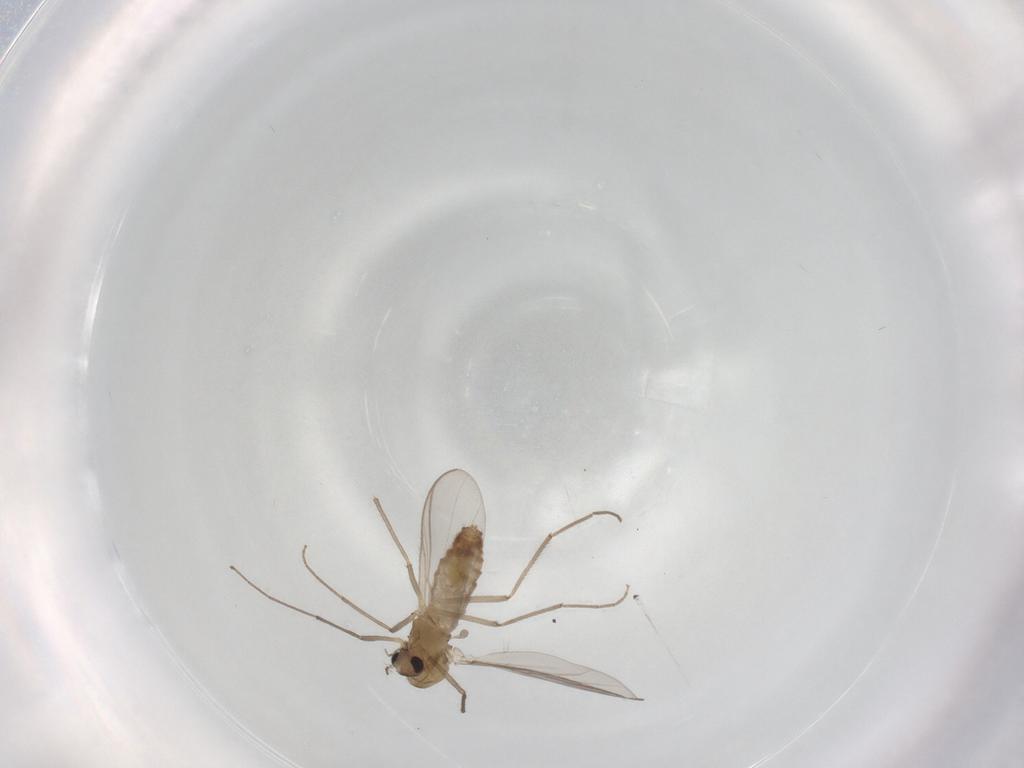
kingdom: Animalia
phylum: Arthropoda
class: Insecta
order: Diptera
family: Chironomidae
